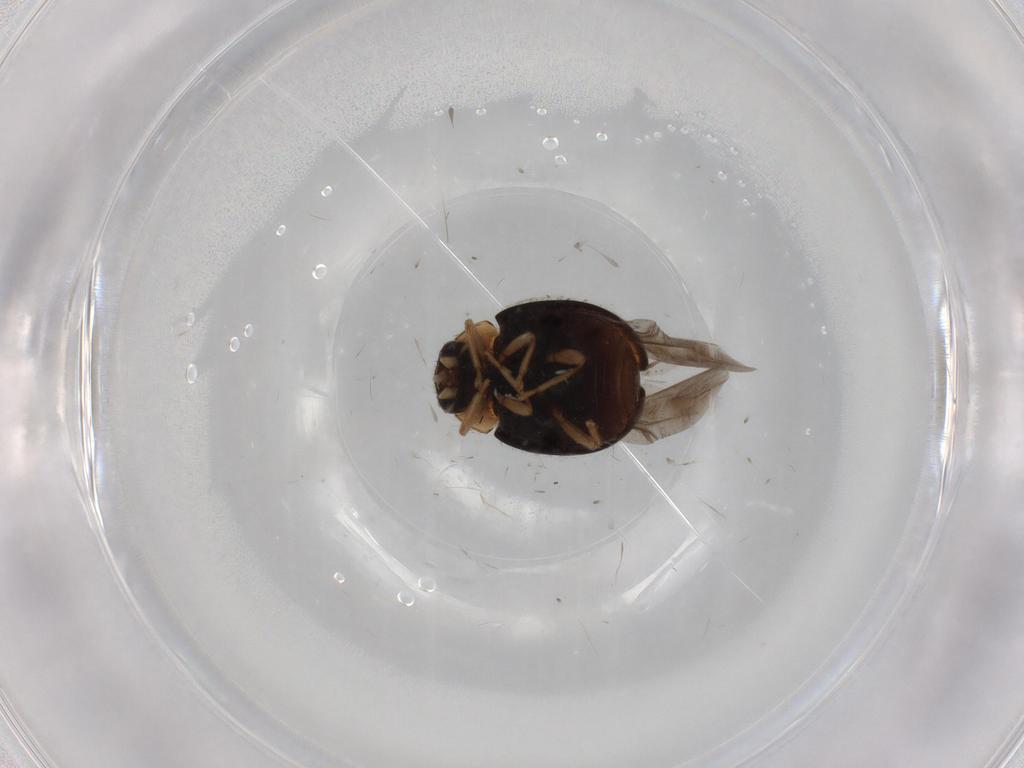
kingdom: Animalia
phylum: Arthropoda
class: Insecta
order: Coleoptera
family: Coccinellidae
